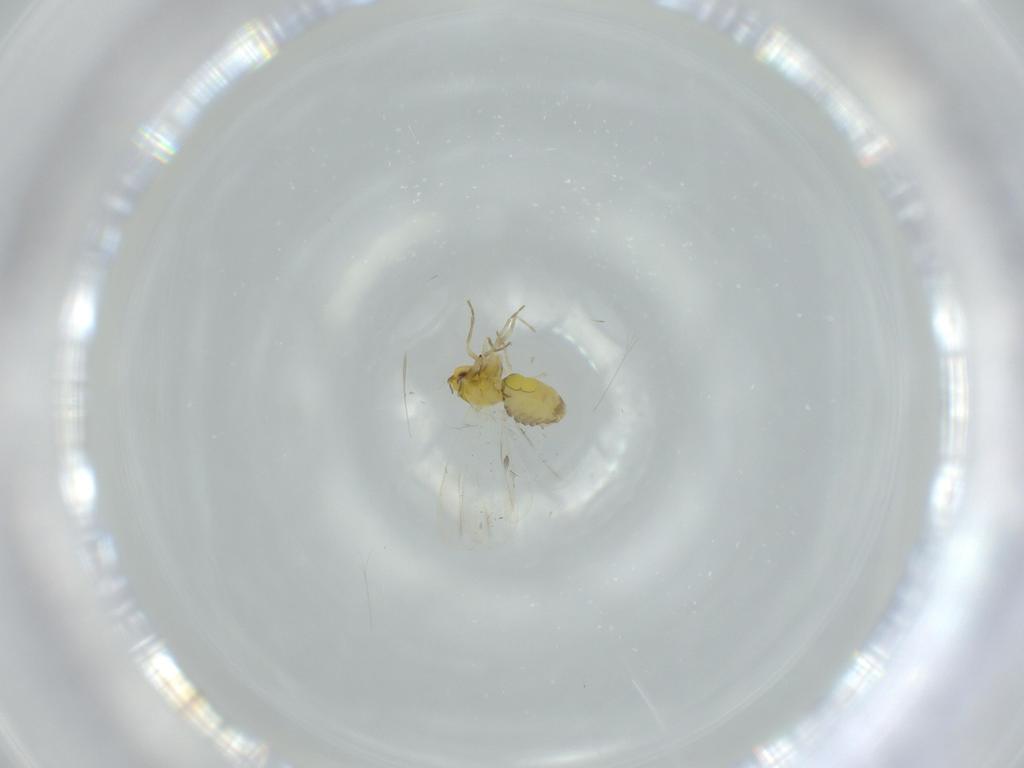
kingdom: Animalia
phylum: Arthropoda
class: Insecta
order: Hemiptera
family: Aleyrodidae
